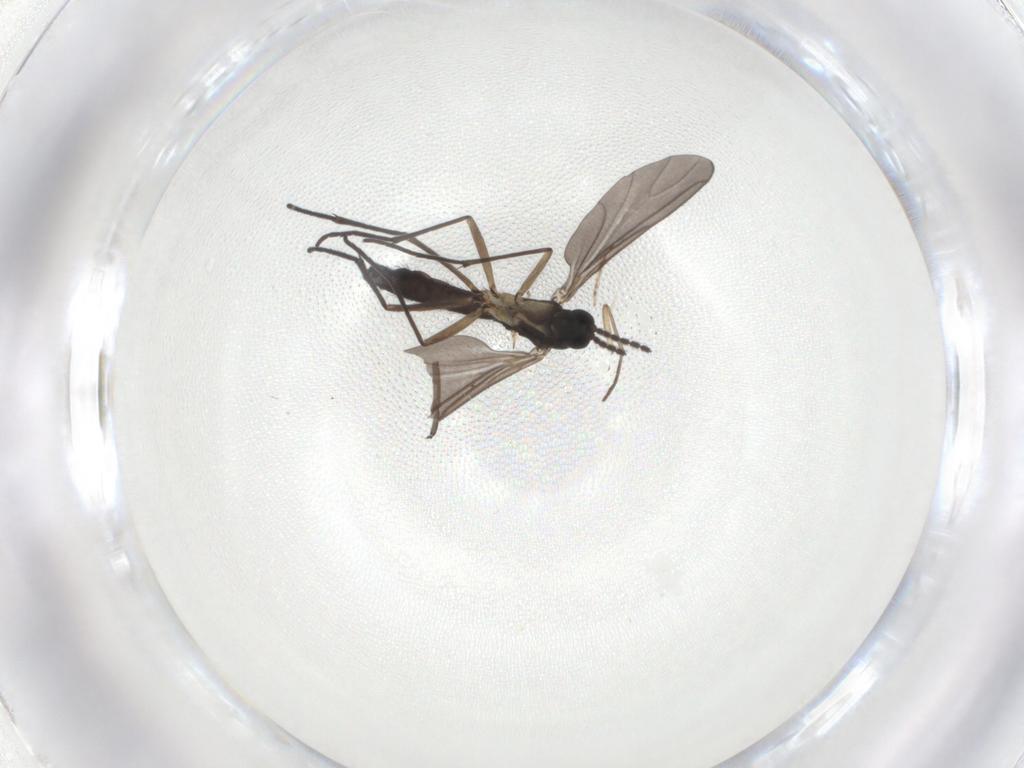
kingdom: Animalia
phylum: Arthropoda
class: Insecta
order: Diptera
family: Sciaridae
